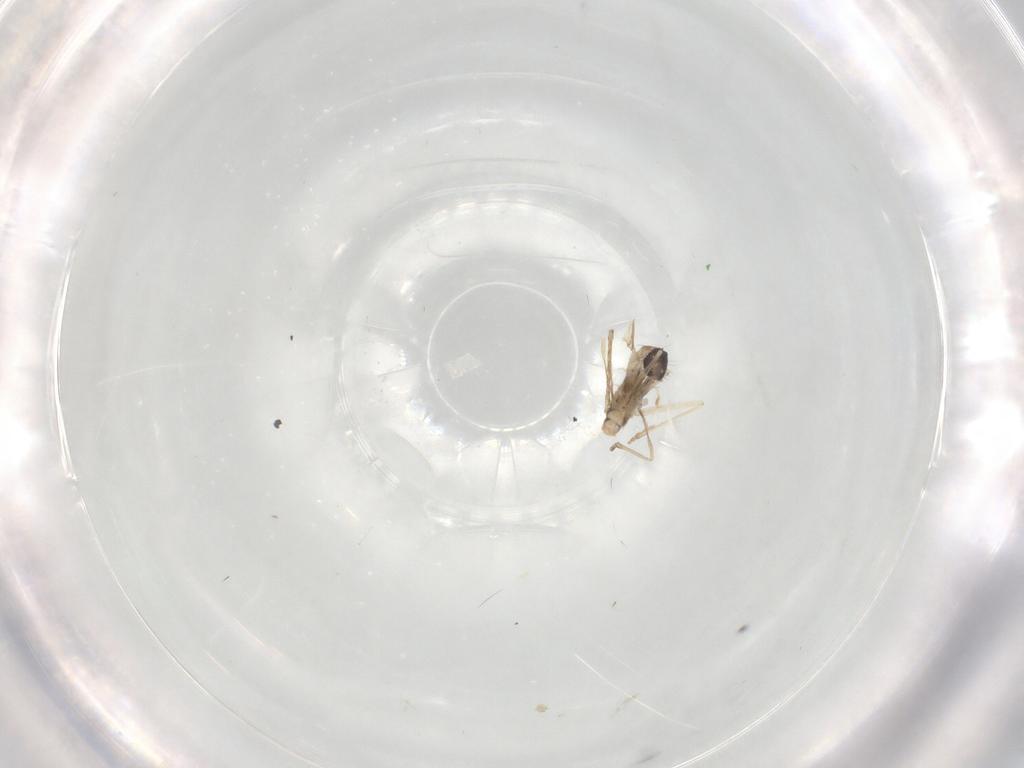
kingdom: Animalia
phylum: Arthropoda
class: Insecta
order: Diptera
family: Cecidomyiidae
